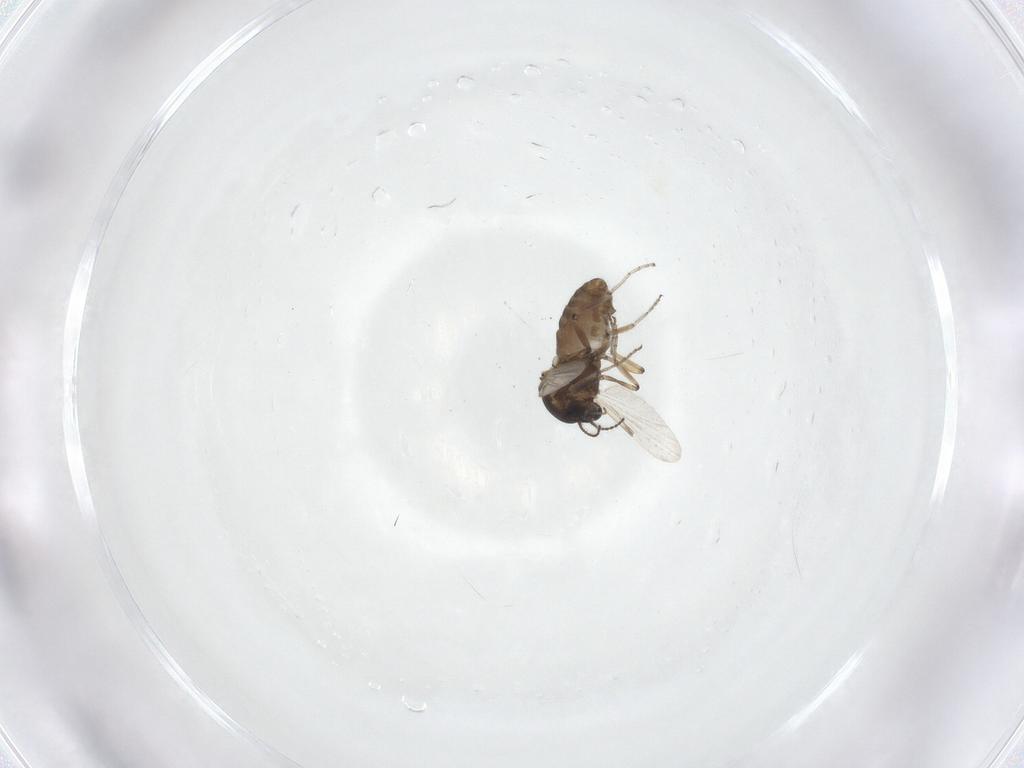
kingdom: Animalia
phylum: Arthropoda
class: Insecta
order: Diptera
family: Ceratopogonidae
